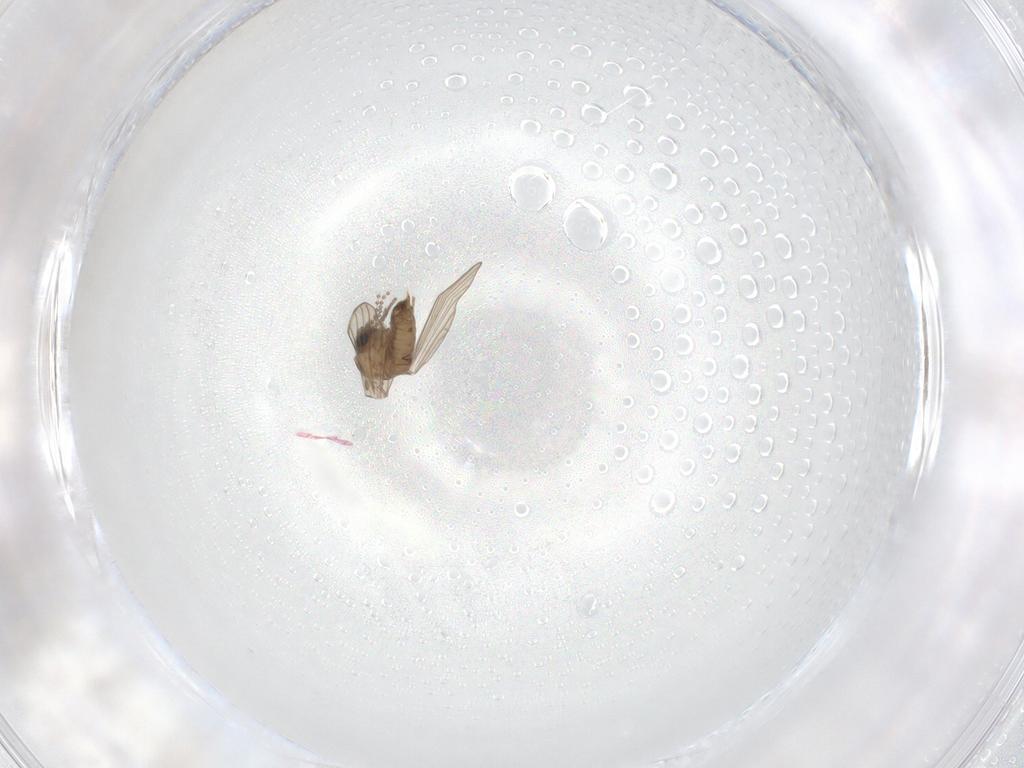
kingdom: Animalia
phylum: Arthropoda
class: Insecta
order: Diptera
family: Psychodidae
